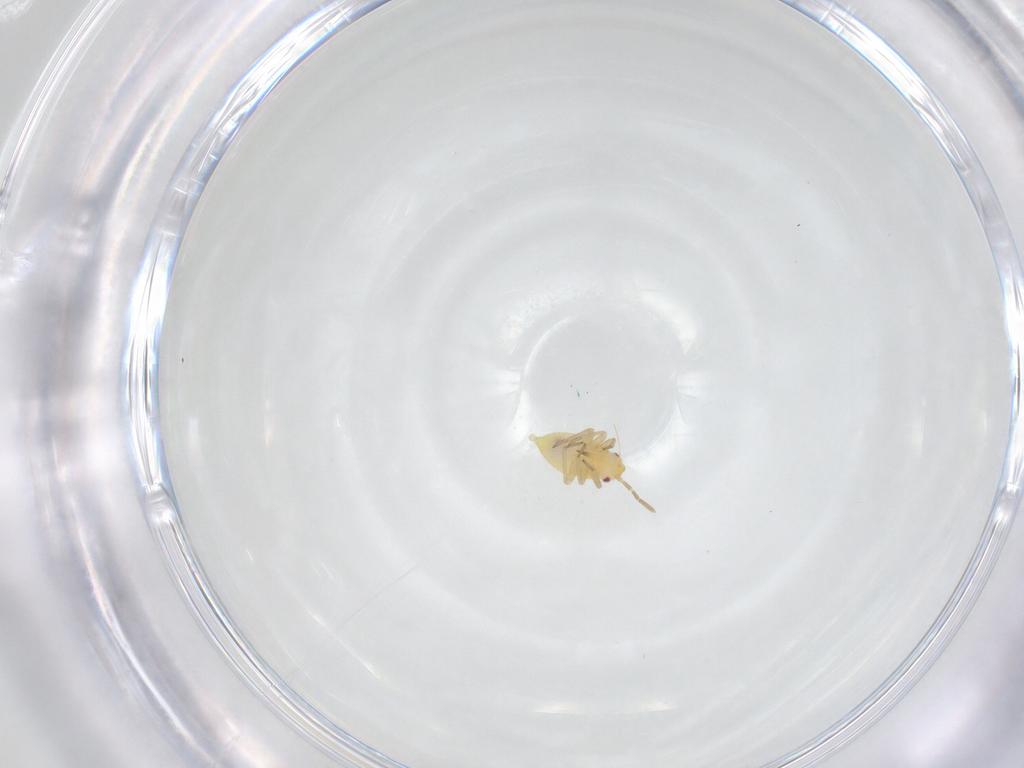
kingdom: Animalia
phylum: Arthropoda
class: Insecta
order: Hemiptera
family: Miridae
